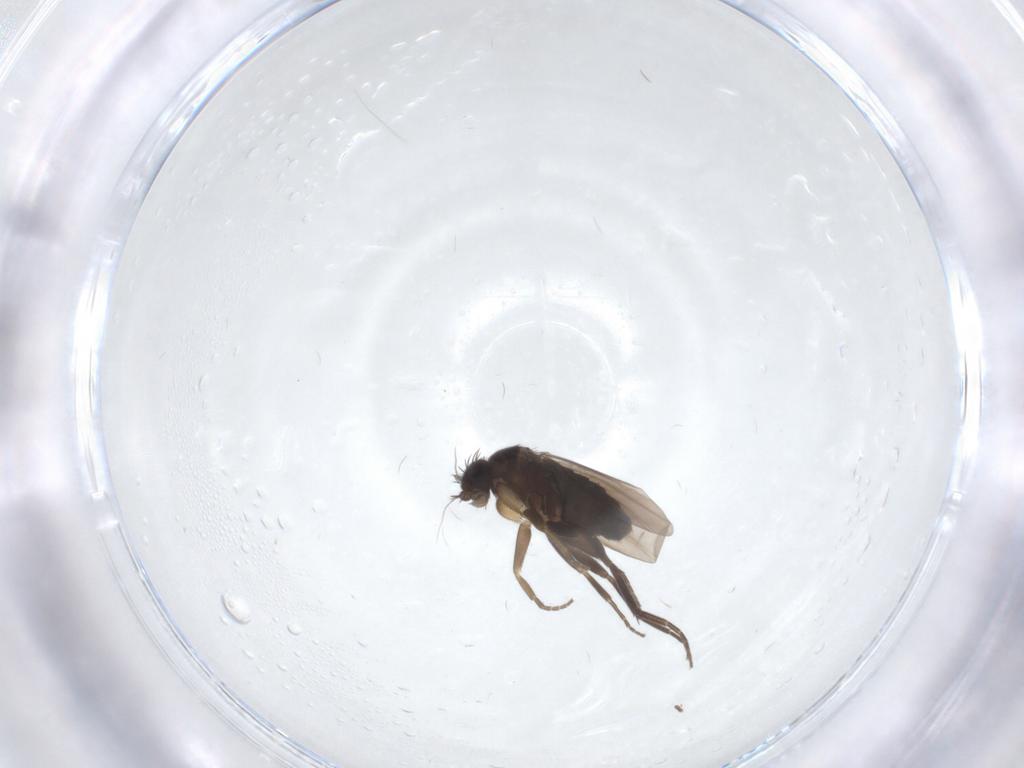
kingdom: Animalia
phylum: Arthropoda
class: Insecta
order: Diptera
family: Phoridae
